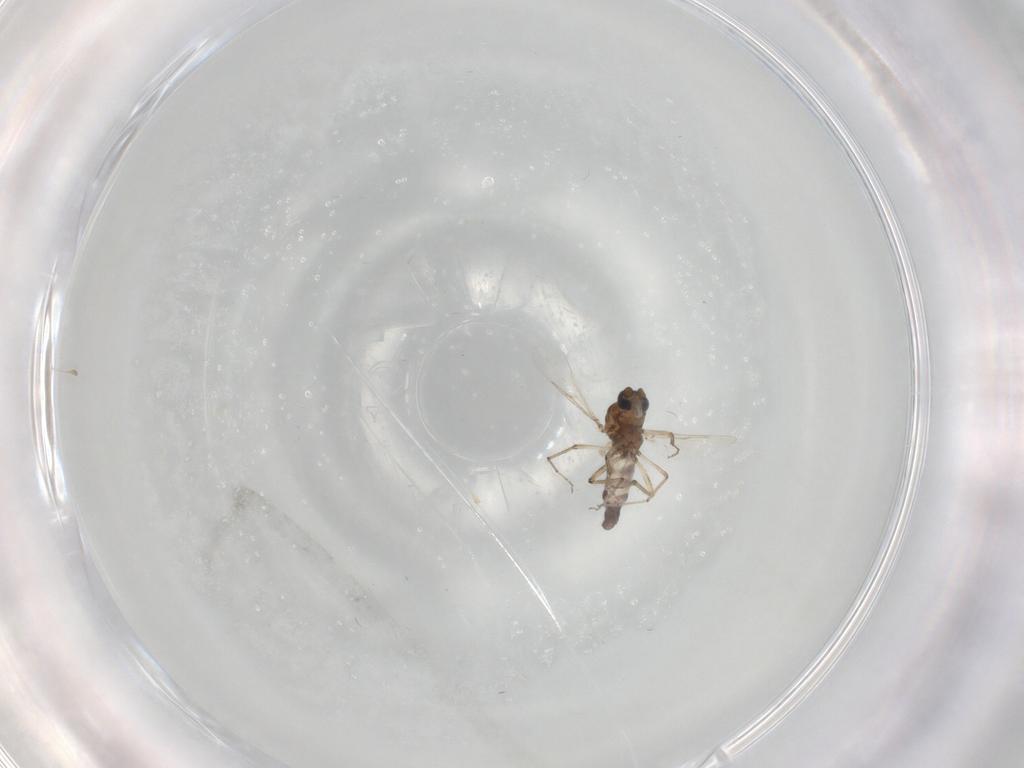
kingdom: Animalia
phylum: Arthropoda
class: Insecta
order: Diptera
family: Ceratopogonidae
